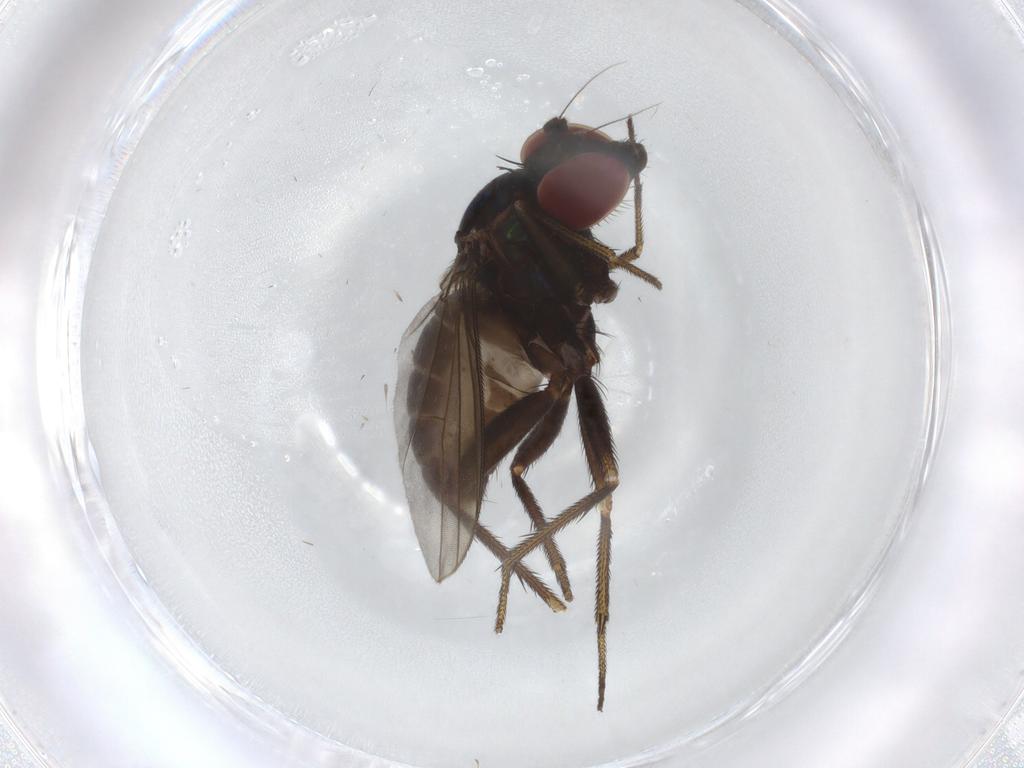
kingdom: Animalia
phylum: Arthropoda
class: Insecta
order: Diptera
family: Dolichopodidae
